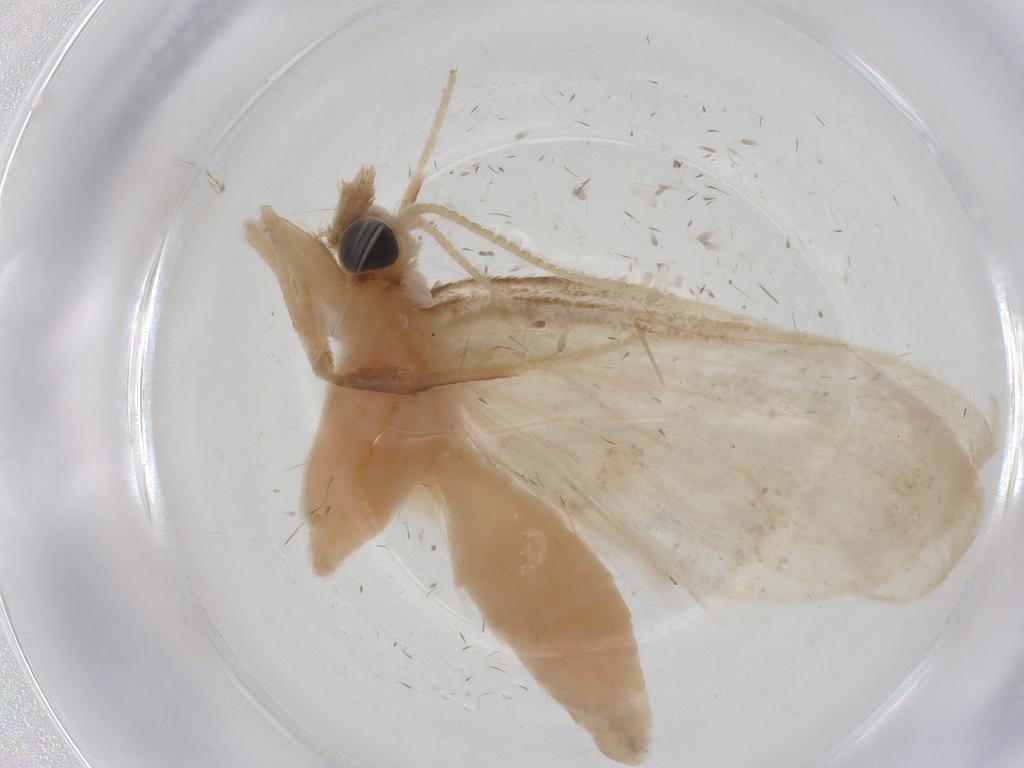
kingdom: Animalia
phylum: Arthropoda
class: Insecta
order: Lepidoptera
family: Crambidae
